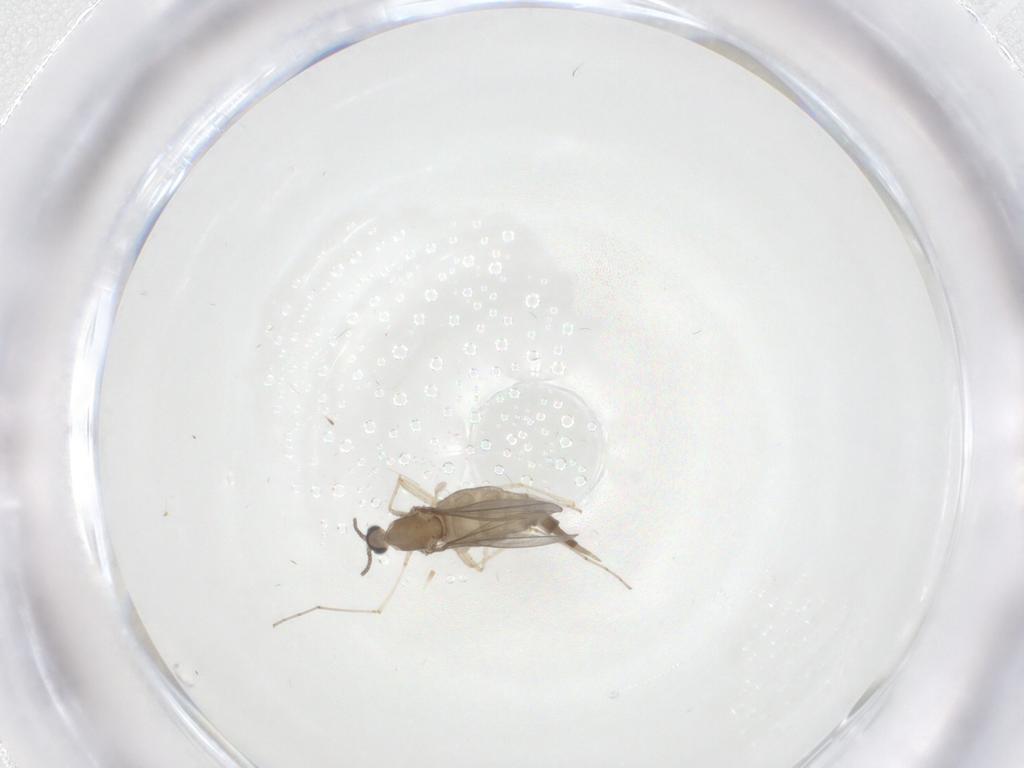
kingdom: Animalia
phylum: Arthropoda
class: Insecta
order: Diptera
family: Cecidomyiidae
